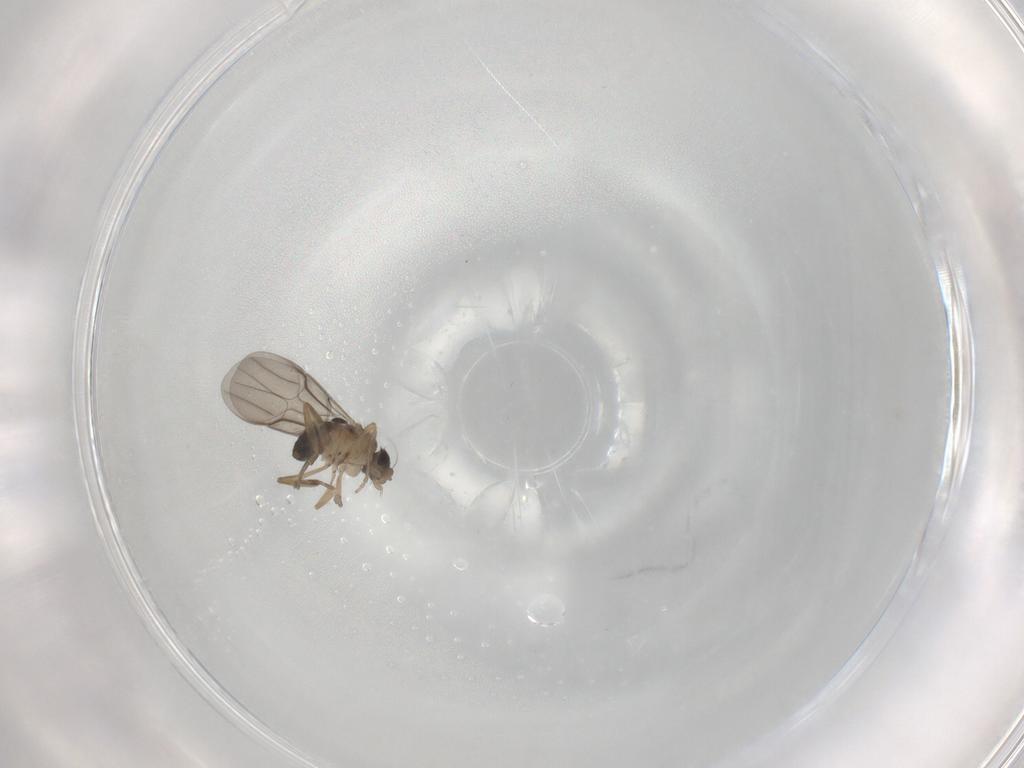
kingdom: Animalia
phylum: Arthropoda
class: Insecta
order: Diptera
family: Phoridae
